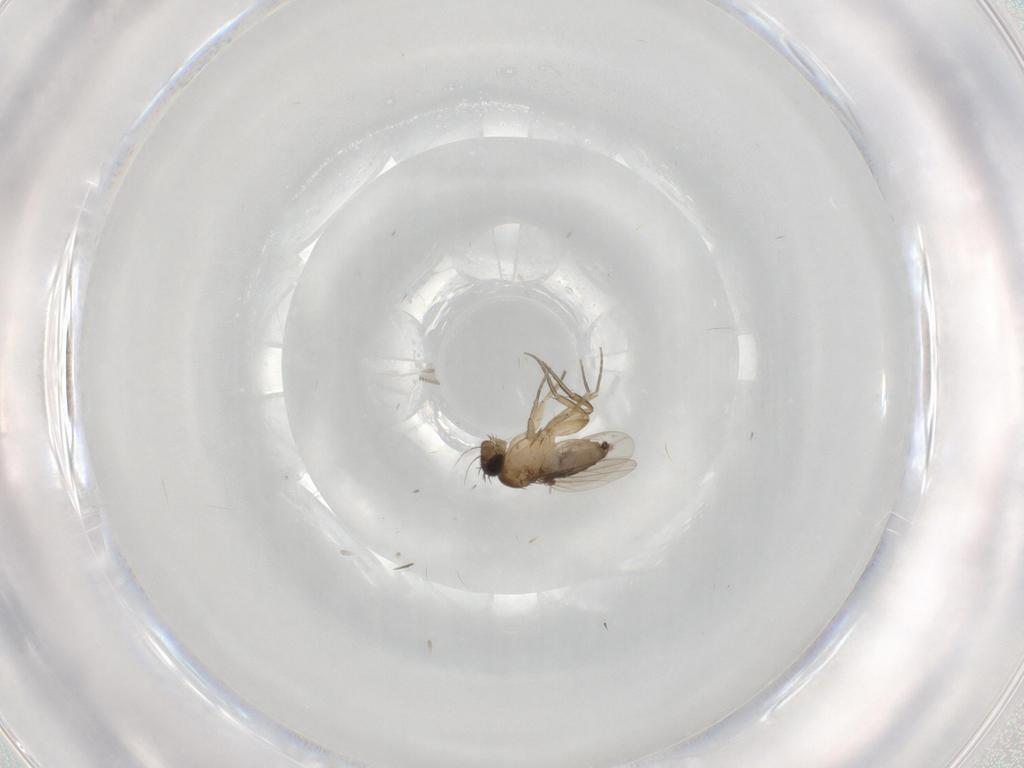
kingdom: Animalia
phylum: Arthropoda
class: Insecta
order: Diptera
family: Phoridae
